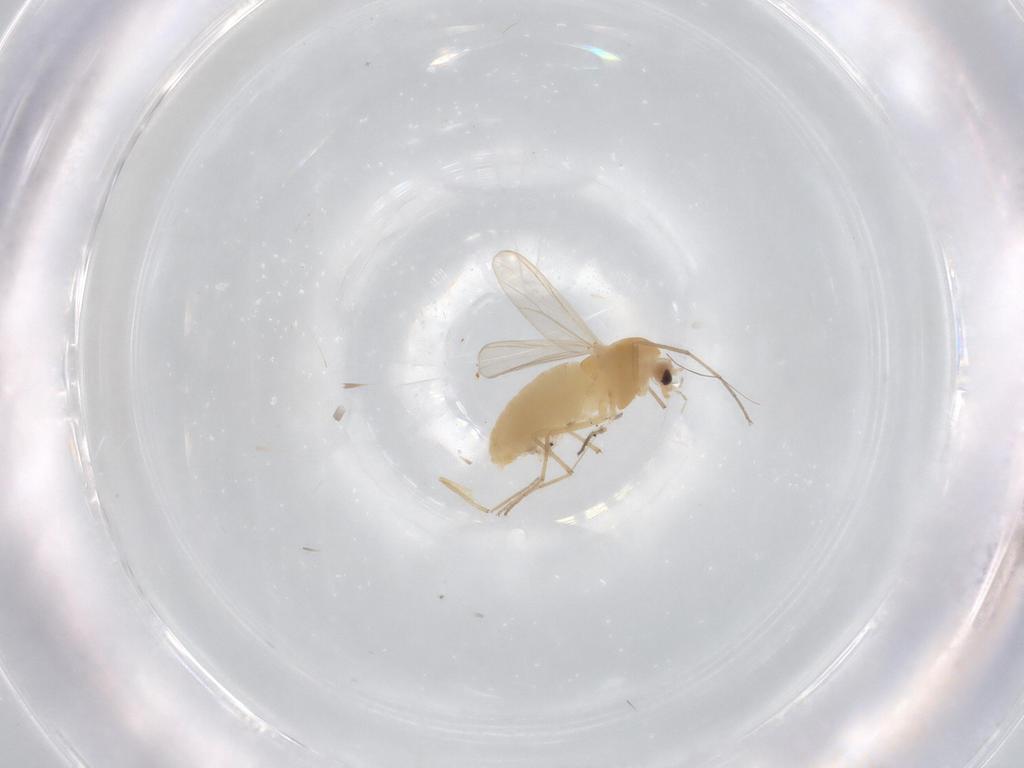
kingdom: Animalia
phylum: Arthropoda
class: Insecta
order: Diptera
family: Chironomidae
